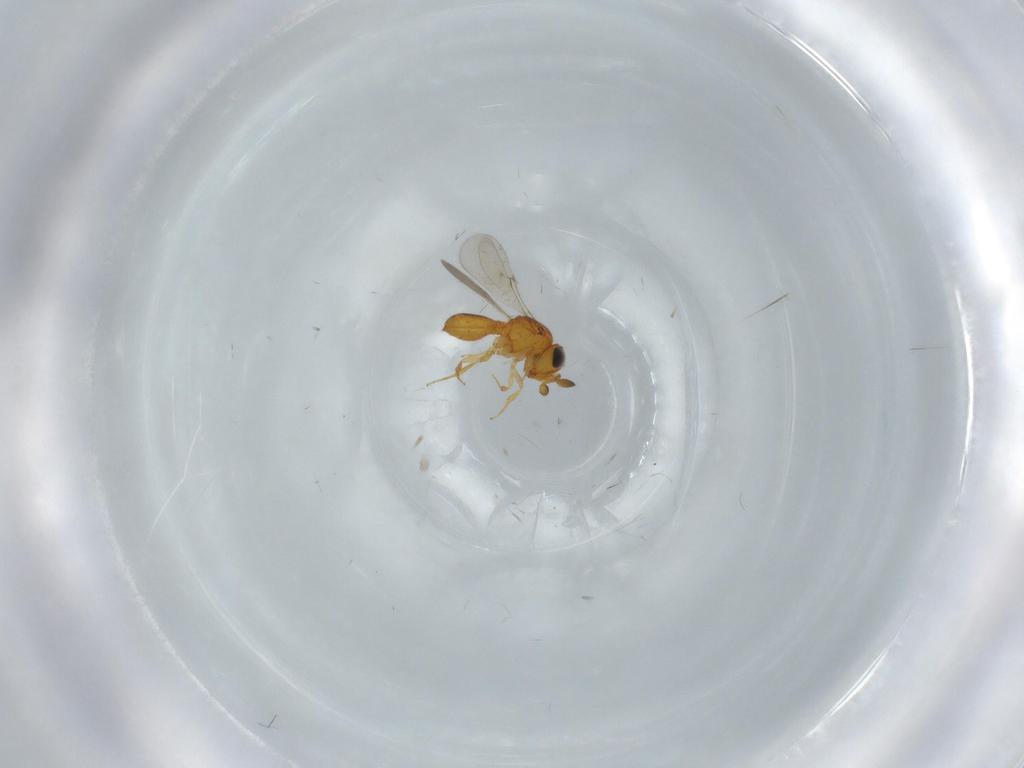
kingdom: Animalia
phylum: Arthropoda
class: Insecta
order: Hymenoptera
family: Scelionidae
